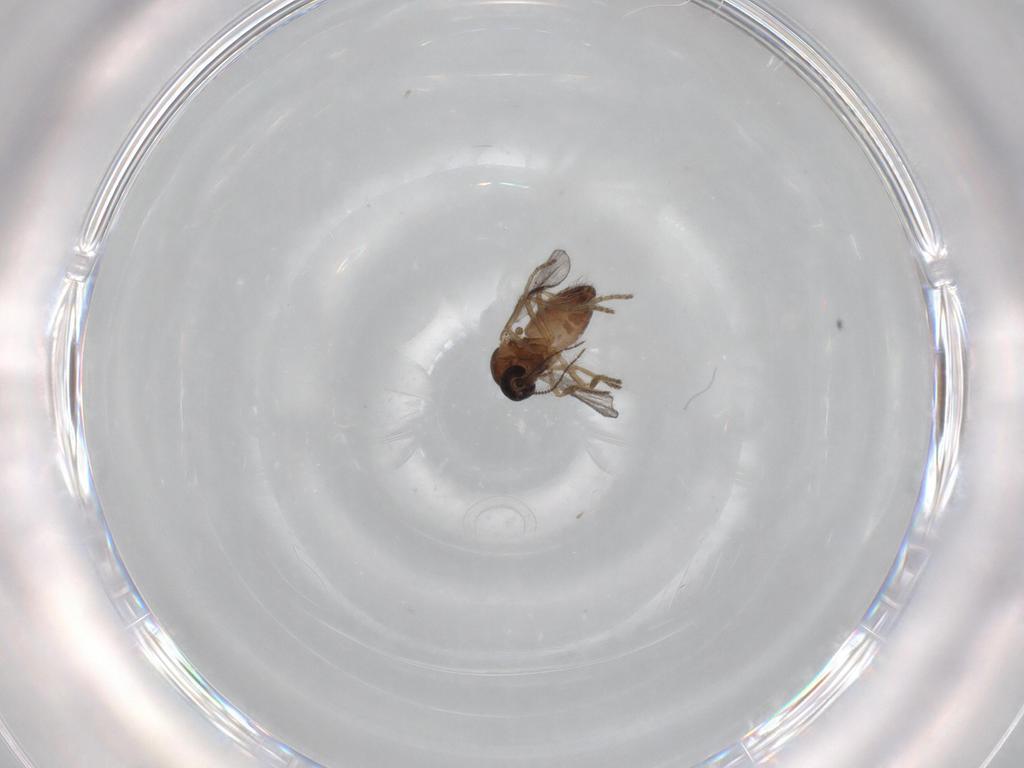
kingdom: Animalia
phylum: Arthropoda
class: Insecta
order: Diptera
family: Ceratopogonidae
